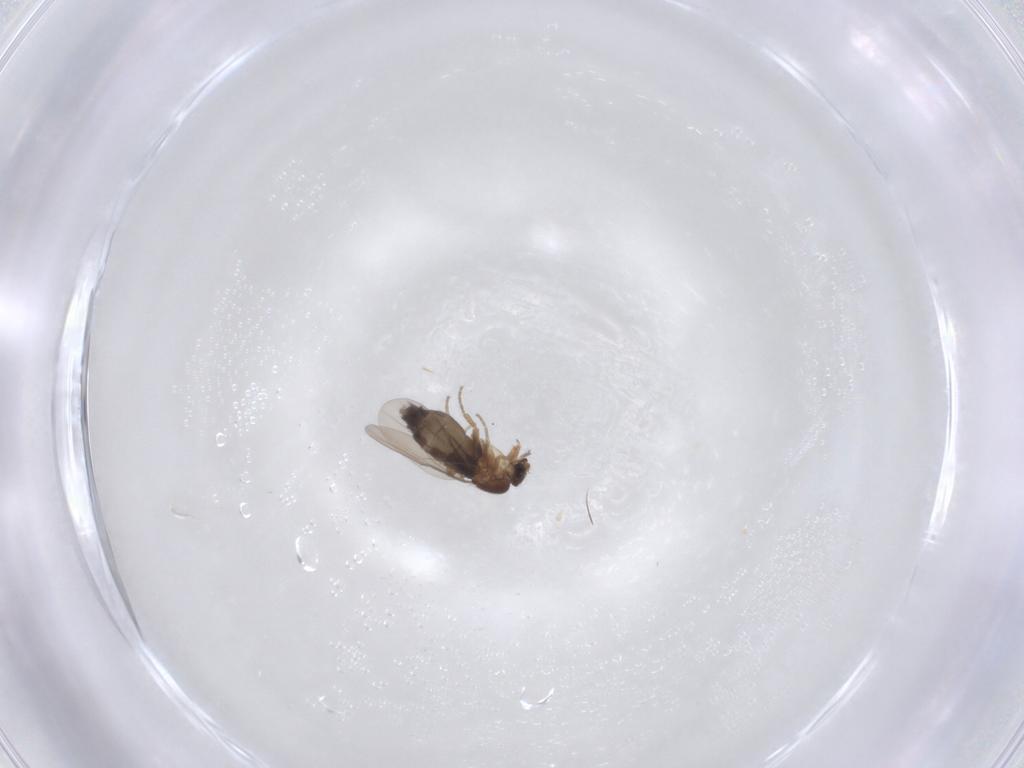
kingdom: Animalia
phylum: Arthropoda
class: Insecta
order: Diptera
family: Phoridae
